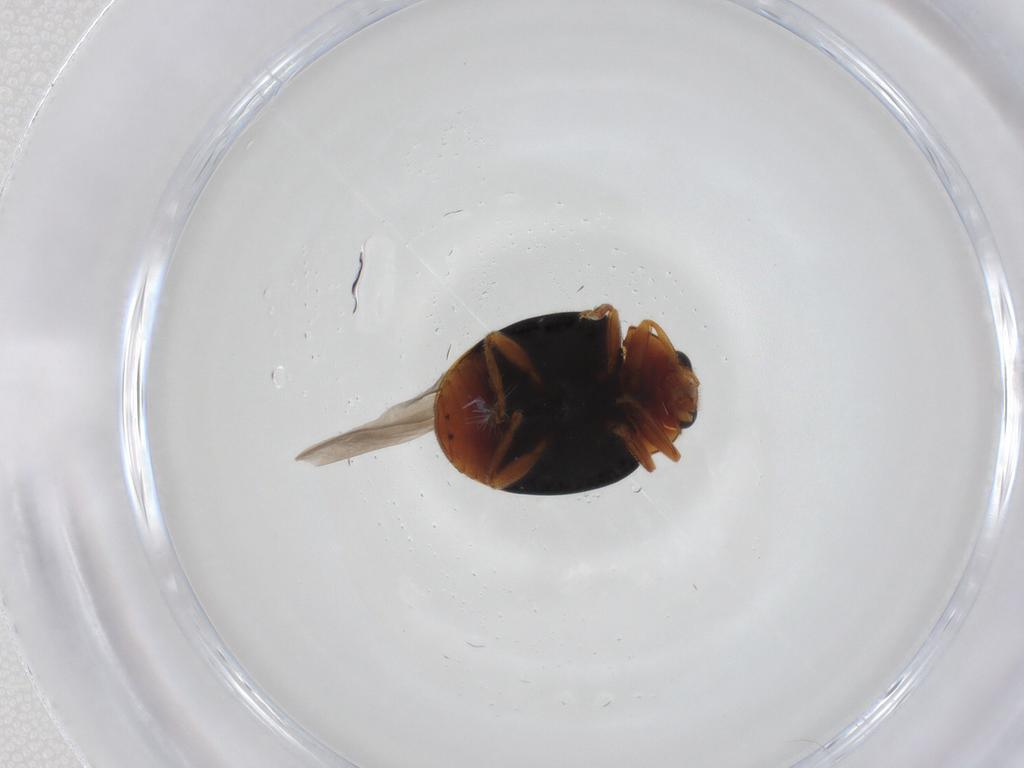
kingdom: Animalia
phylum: Arthropoda
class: Insecta
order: Coleoptera
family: Coccinellidae
